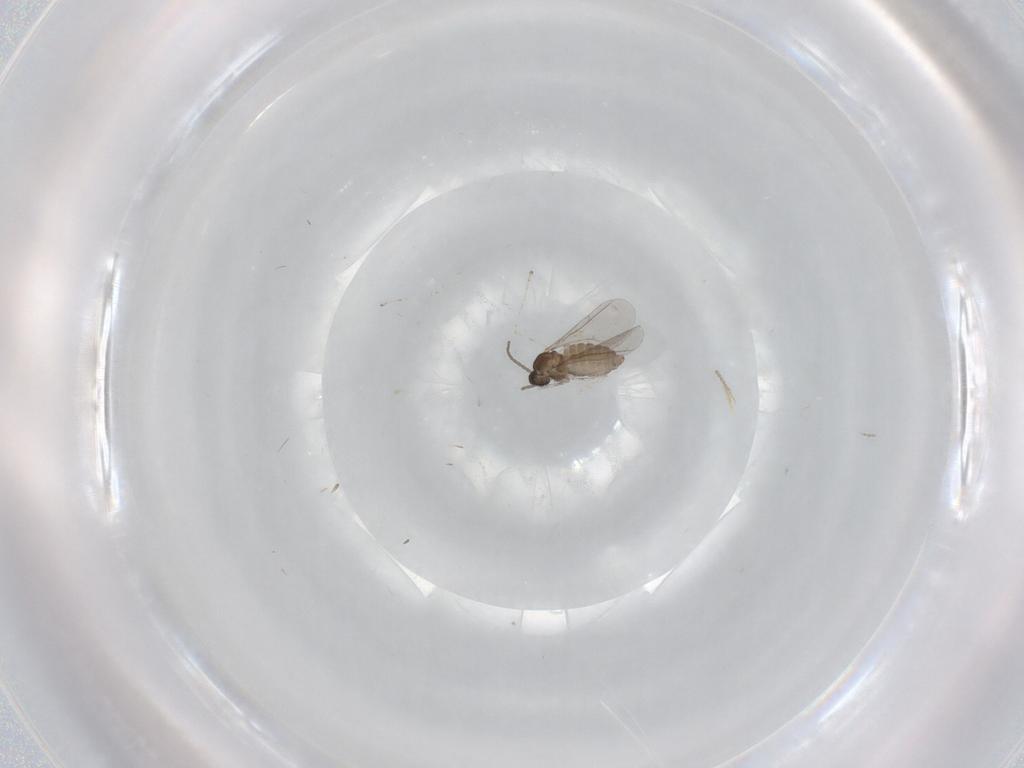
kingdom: Animalia
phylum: Arthropoda
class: Insecta
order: Diptera
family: Cecidomyiidae
